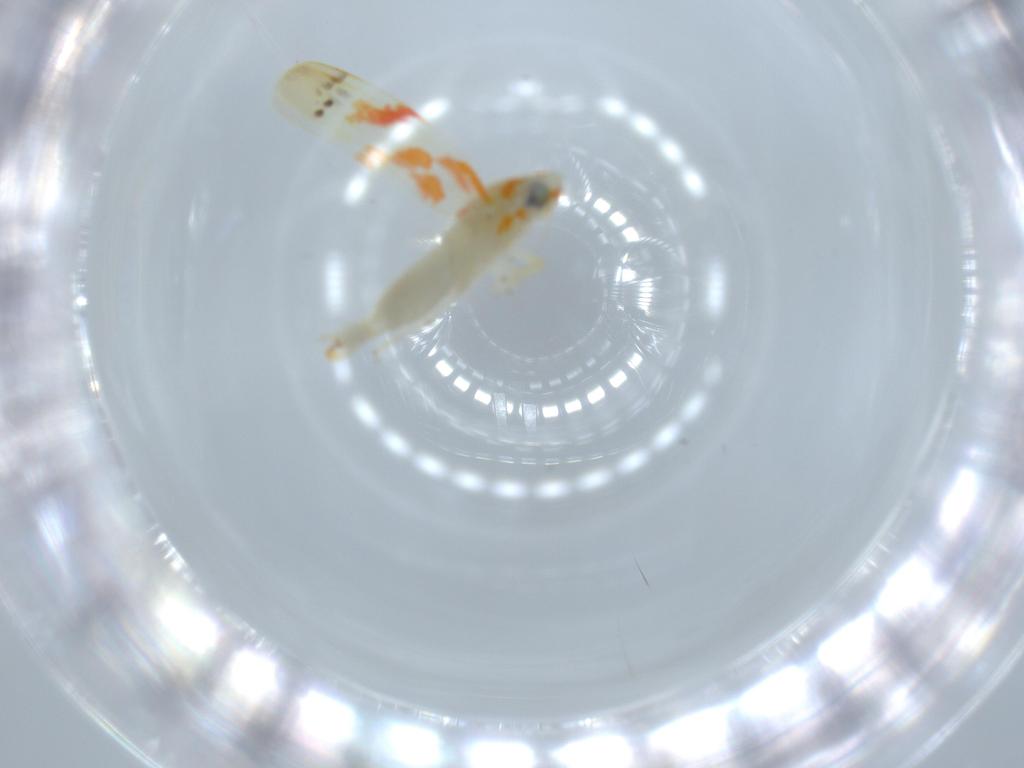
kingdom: Animalia
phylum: Arthropoda
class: Insecta
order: Hemiptera
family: Cicadellidae
